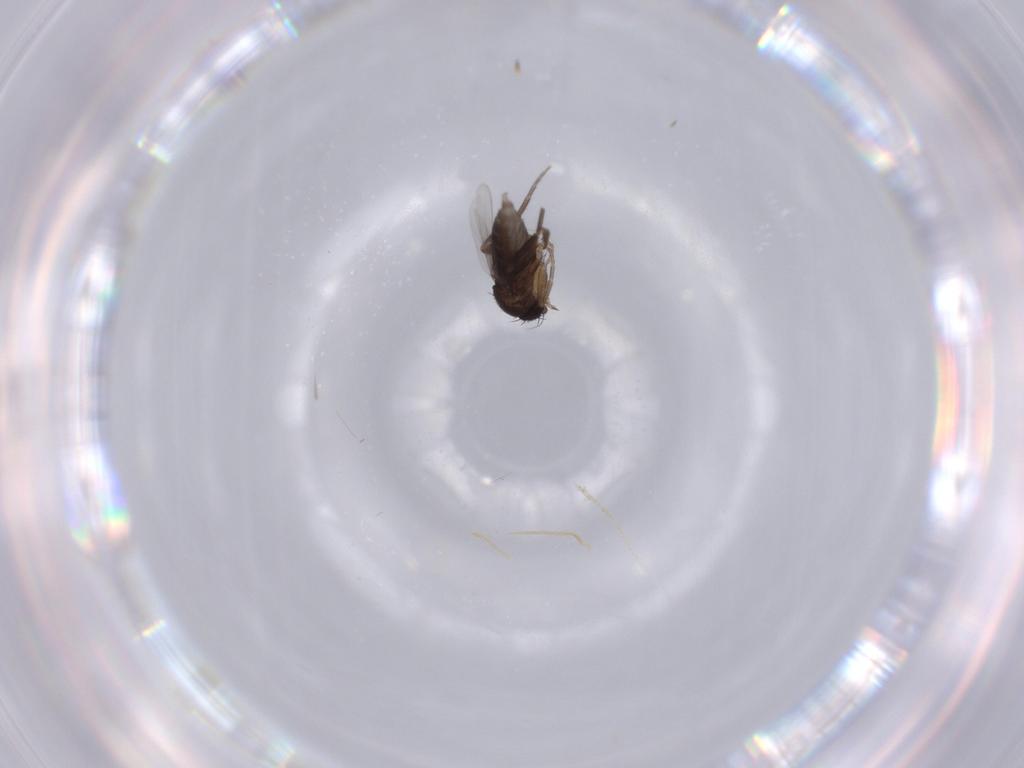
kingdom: Animalia
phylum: Arthropoda
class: Insecta
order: Diptera
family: Phoridae
